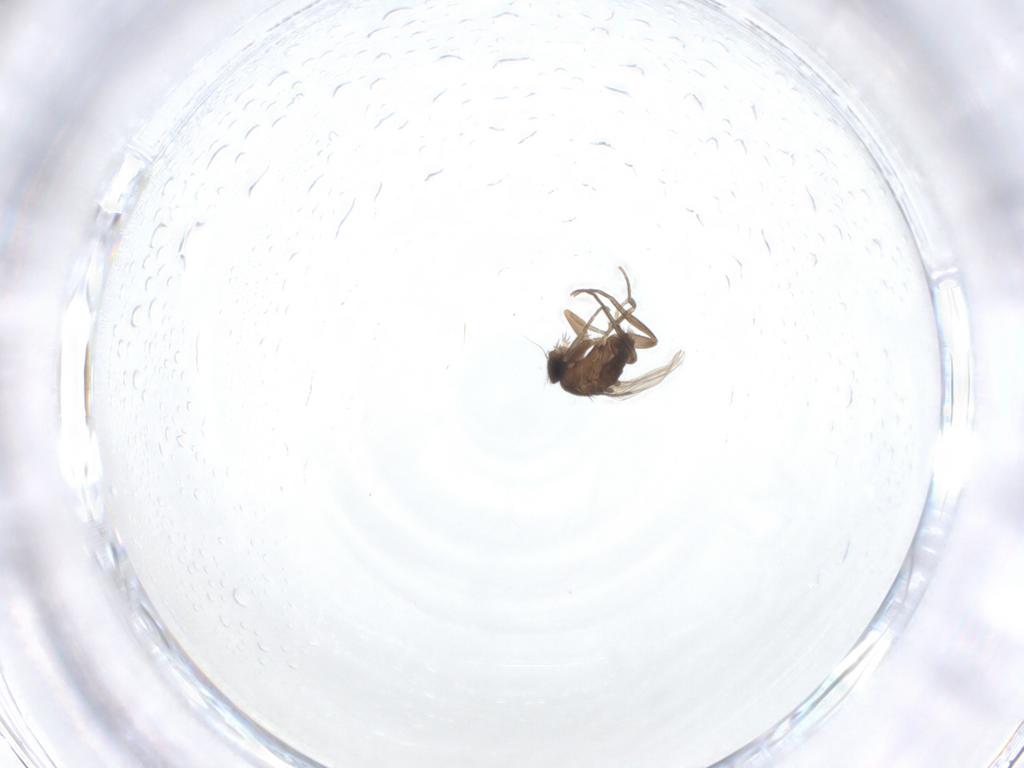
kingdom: Animalia
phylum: Arthropoda
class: Insecta
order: Diptera
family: Phoridae
